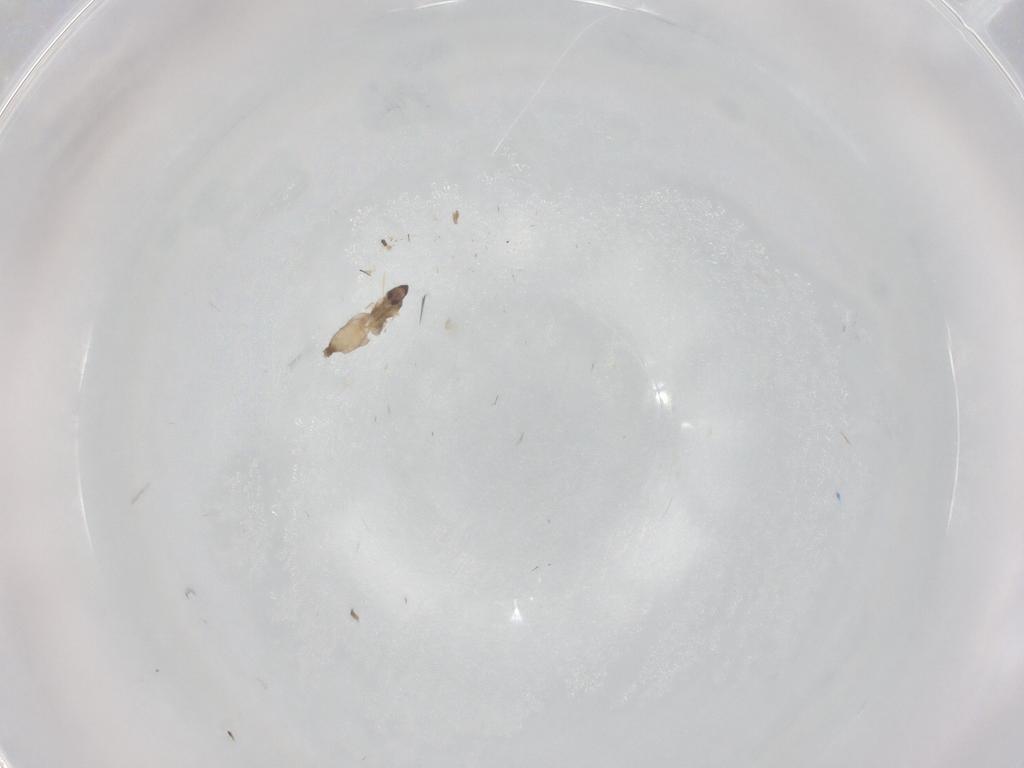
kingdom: Animalia
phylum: Arthropoda
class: Insecta
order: Diptera
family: Cecidomyiidae
